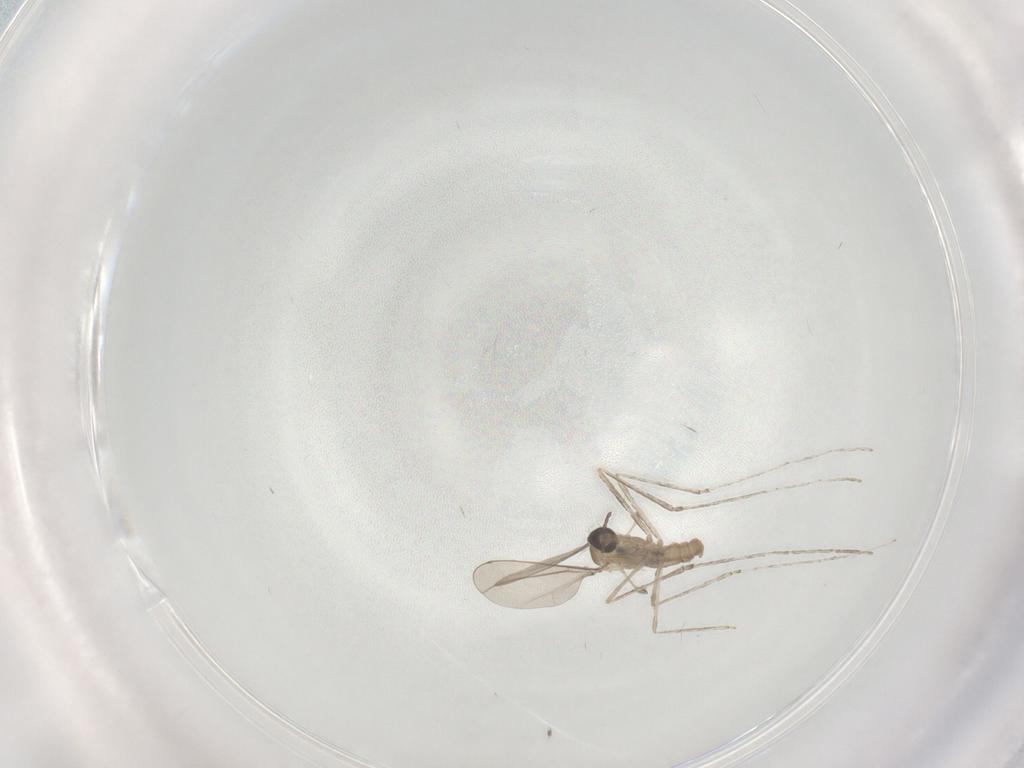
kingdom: Animalia
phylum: Arthropoda
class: Insecta
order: Diptera
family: Cecidomyiidae
